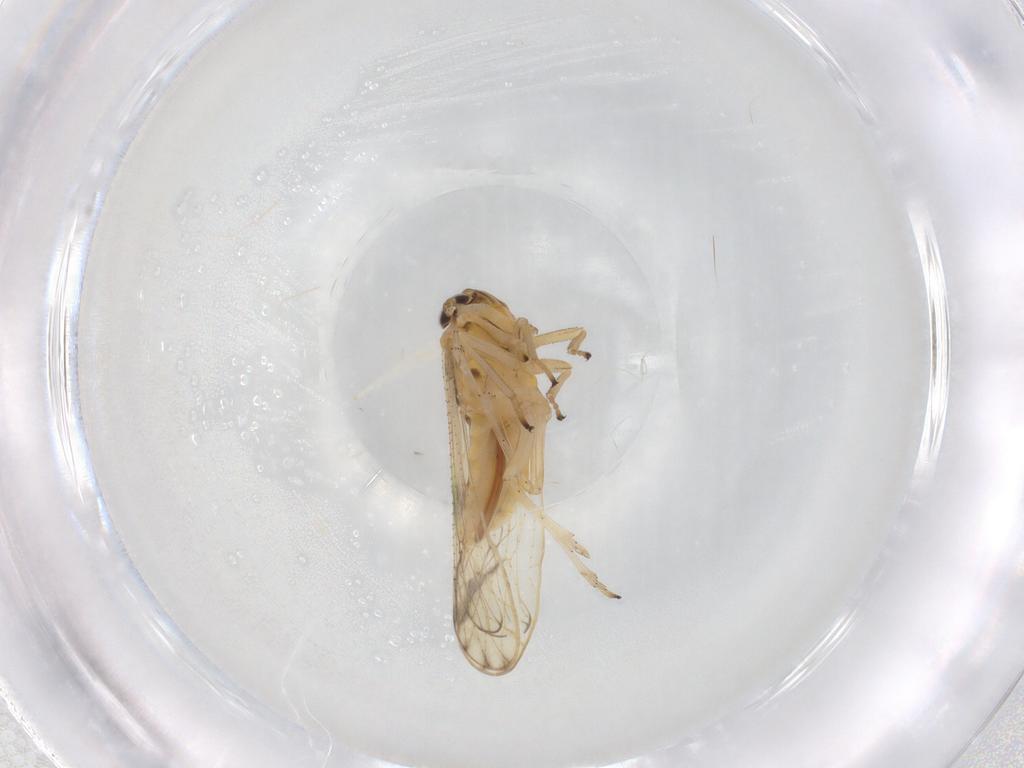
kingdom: Animalia
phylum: Arthropoda
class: Insecta
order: Hemiptera
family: Delphacidae
